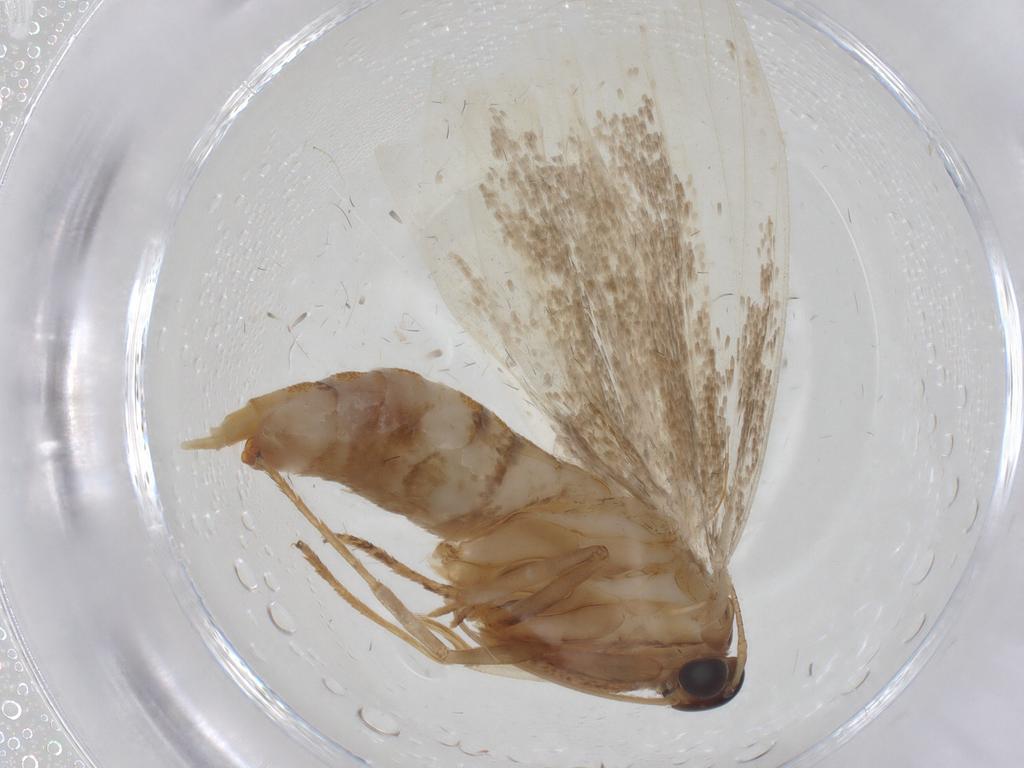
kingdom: Animalia
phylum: Arthropoda
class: Insecta
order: Lepidoptera
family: Oecophoridae
